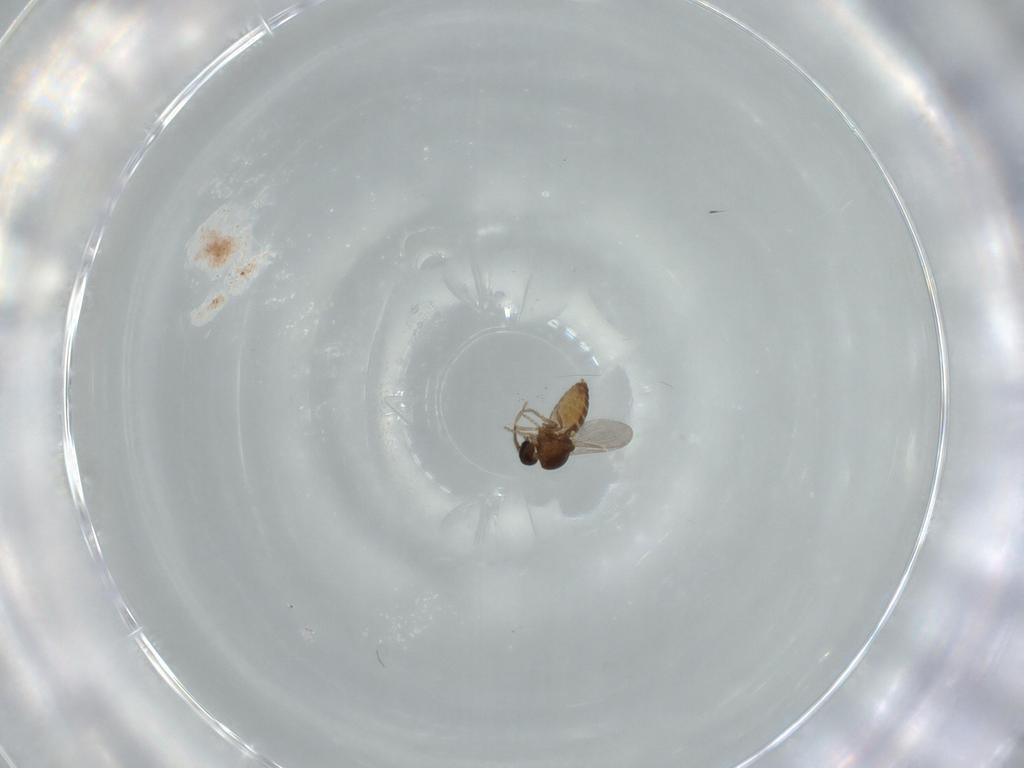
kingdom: Animalia
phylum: Arthropoda
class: Insecta
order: Diptera
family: Ceratopogonidae
